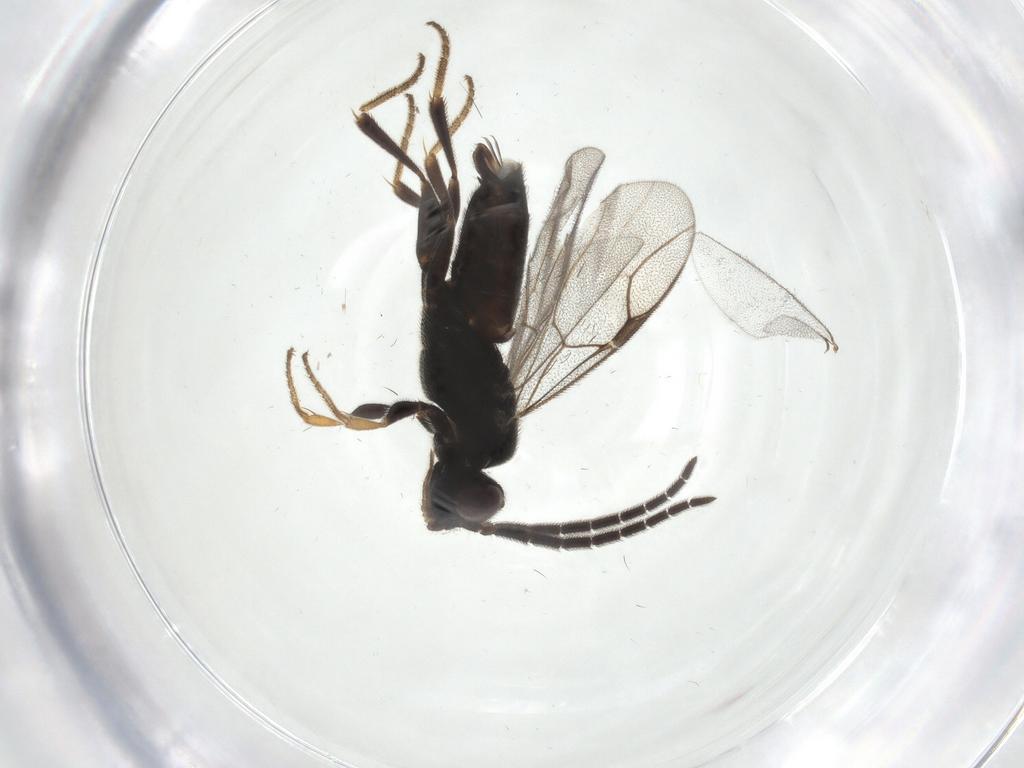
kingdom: Animalia
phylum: Arthropoda
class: Insecta
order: Hymenoptera
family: Dryinidae
